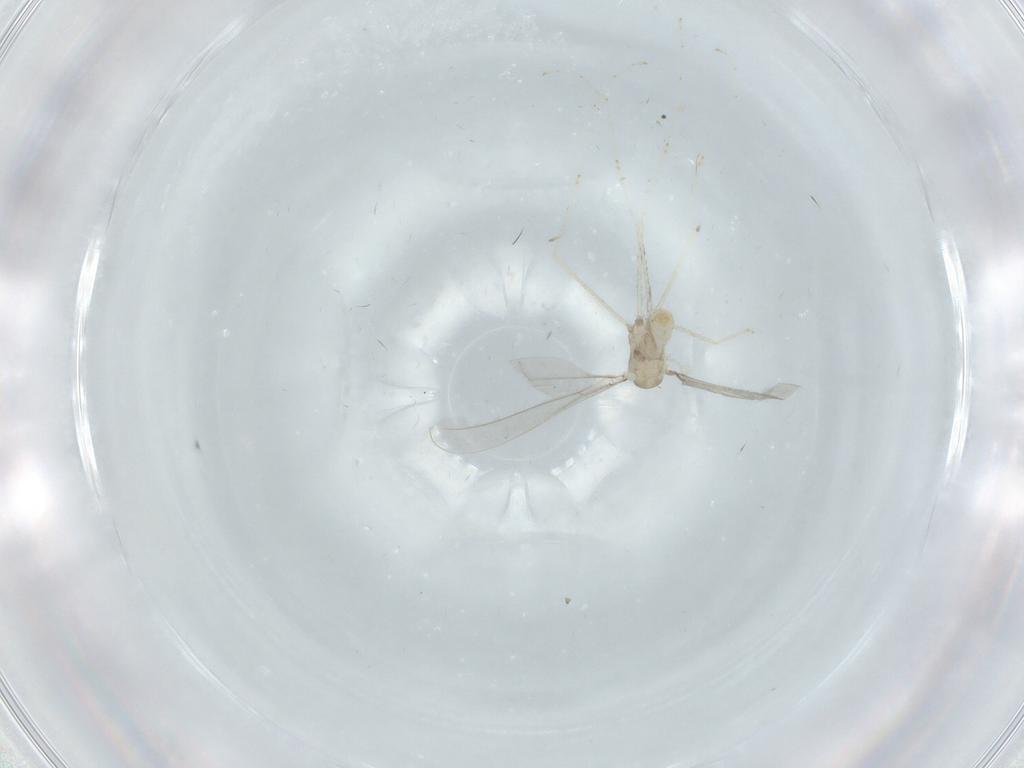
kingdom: Animalia
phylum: Arthropoda
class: Insecta
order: Diptera
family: Cecidomyiidae
